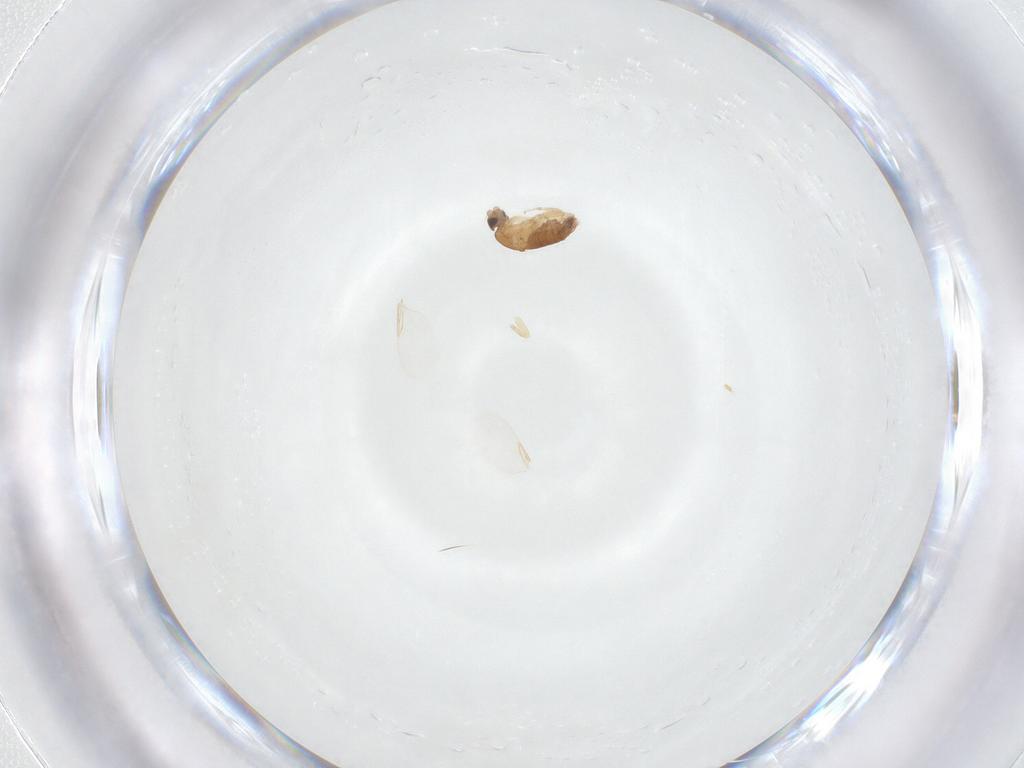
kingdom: Animalia
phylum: Arthropoda
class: Insecta
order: Diptera
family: Phoridae
